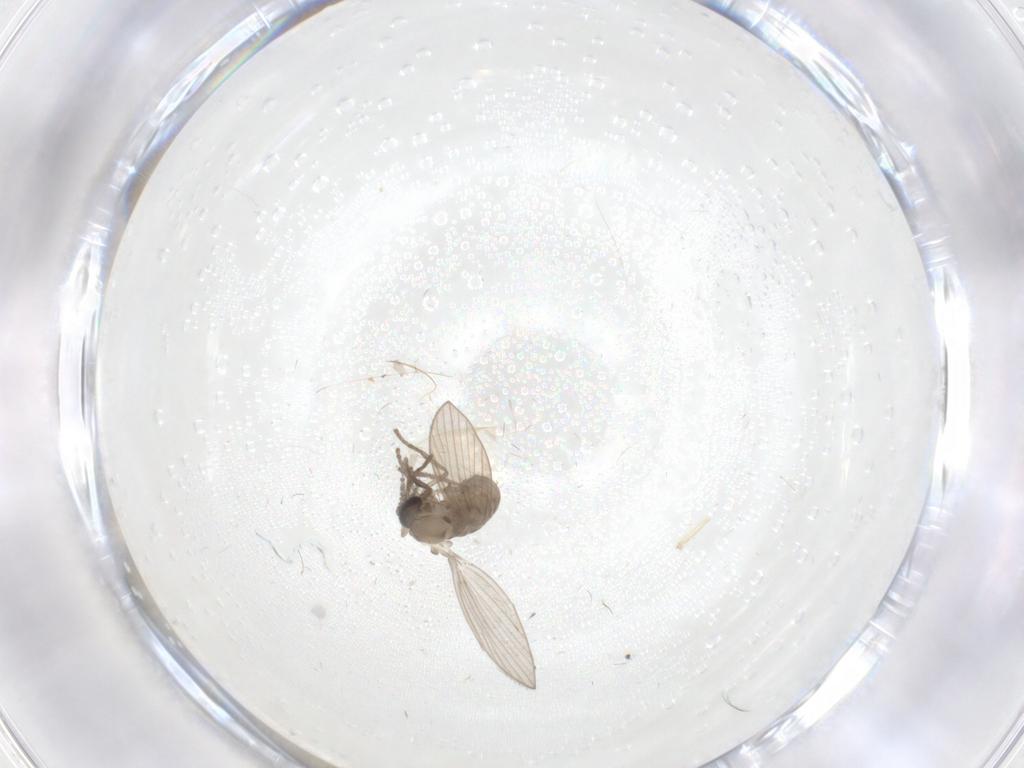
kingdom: Animalia
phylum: Arthropoda
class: Insecta
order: Diptera
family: Psychodidae
